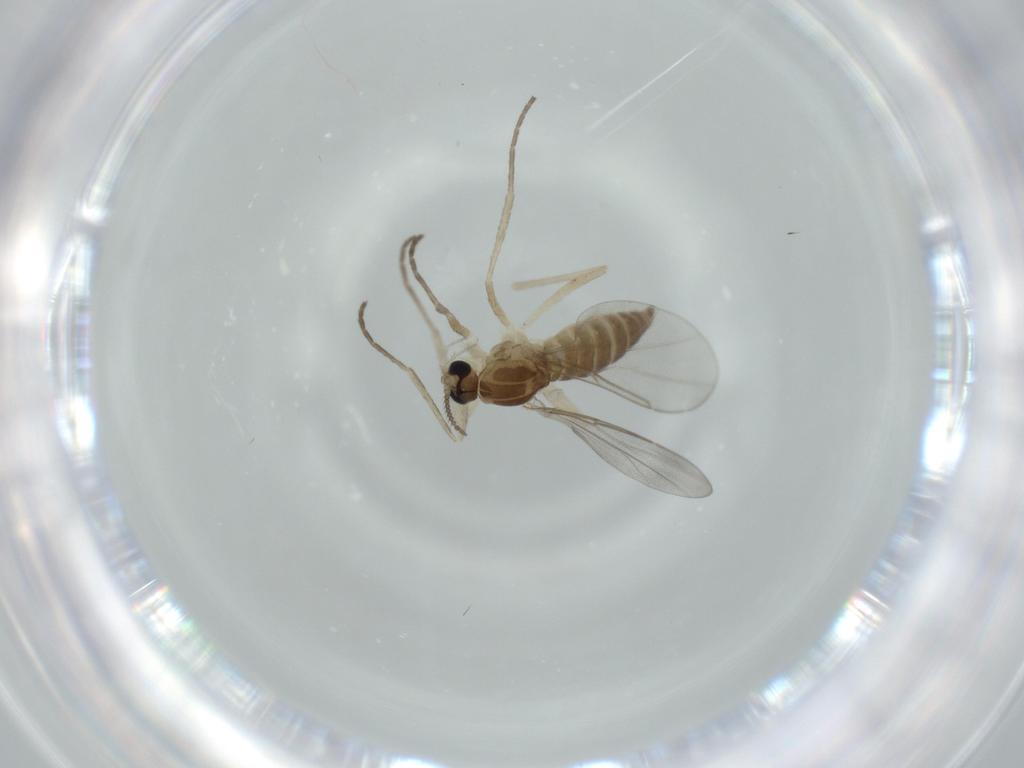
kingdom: Animalia
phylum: Arthropoda
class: Insecta
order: Diptera
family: Cecidomyiidae
